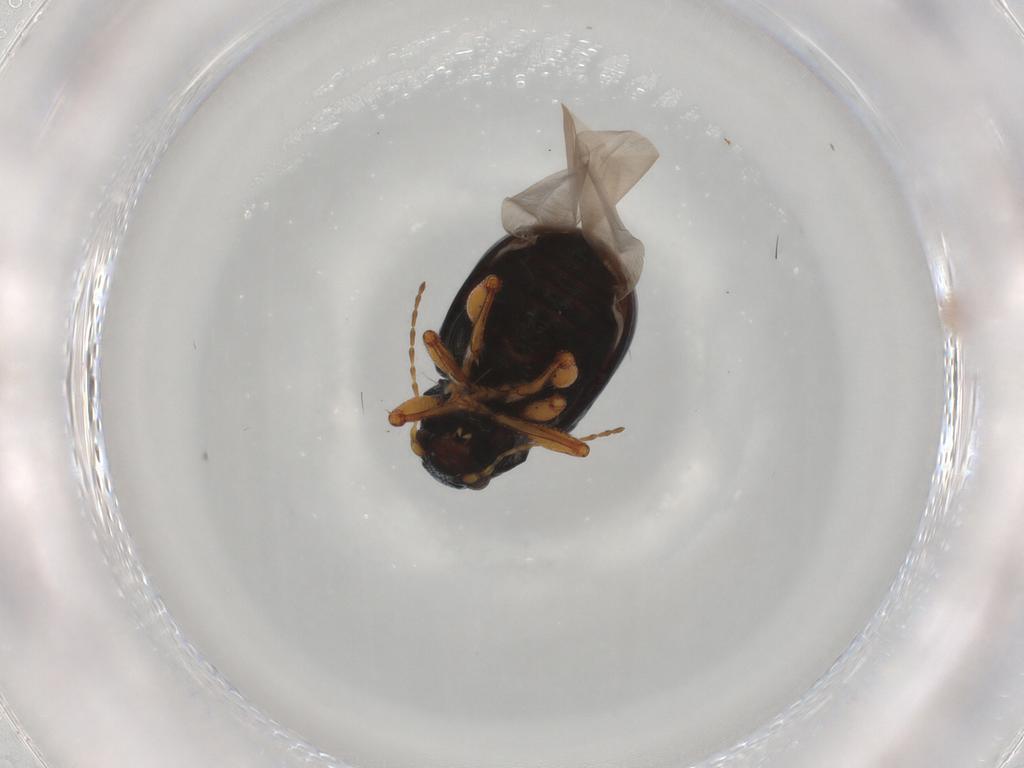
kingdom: Animalia
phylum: Arthropoda
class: Insecta
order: Coleoptera
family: Chrysomelidae
